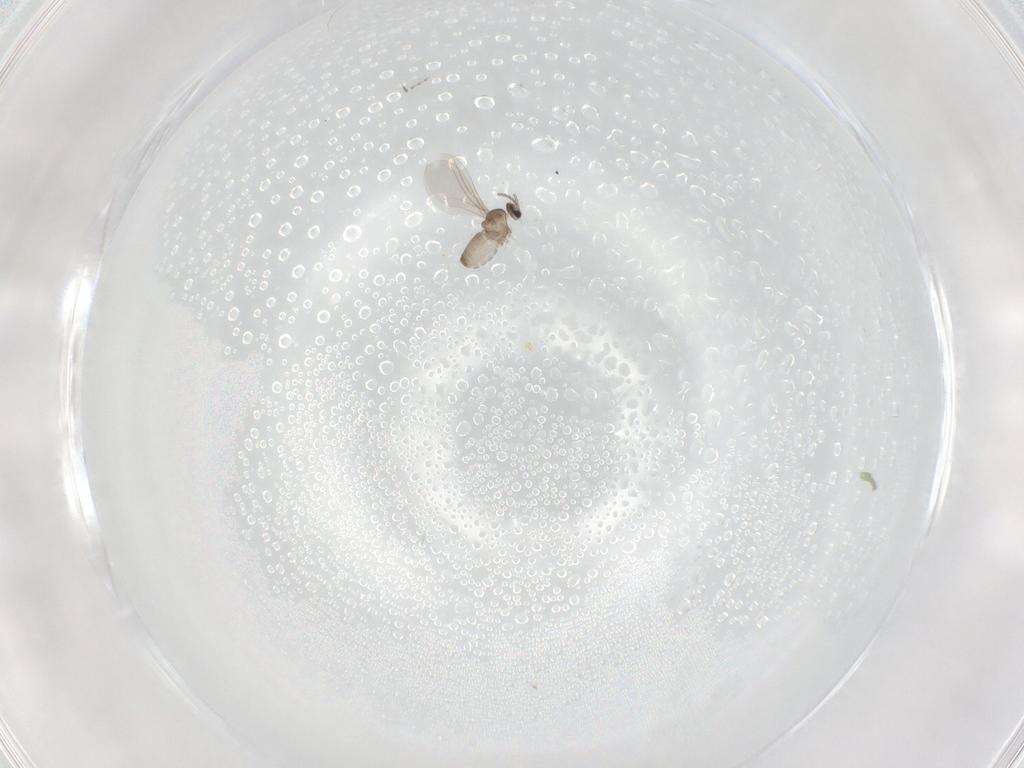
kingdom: Animalia
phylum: Arthropoda
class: Insecta
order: Diptera
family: Cecidomyiidae
